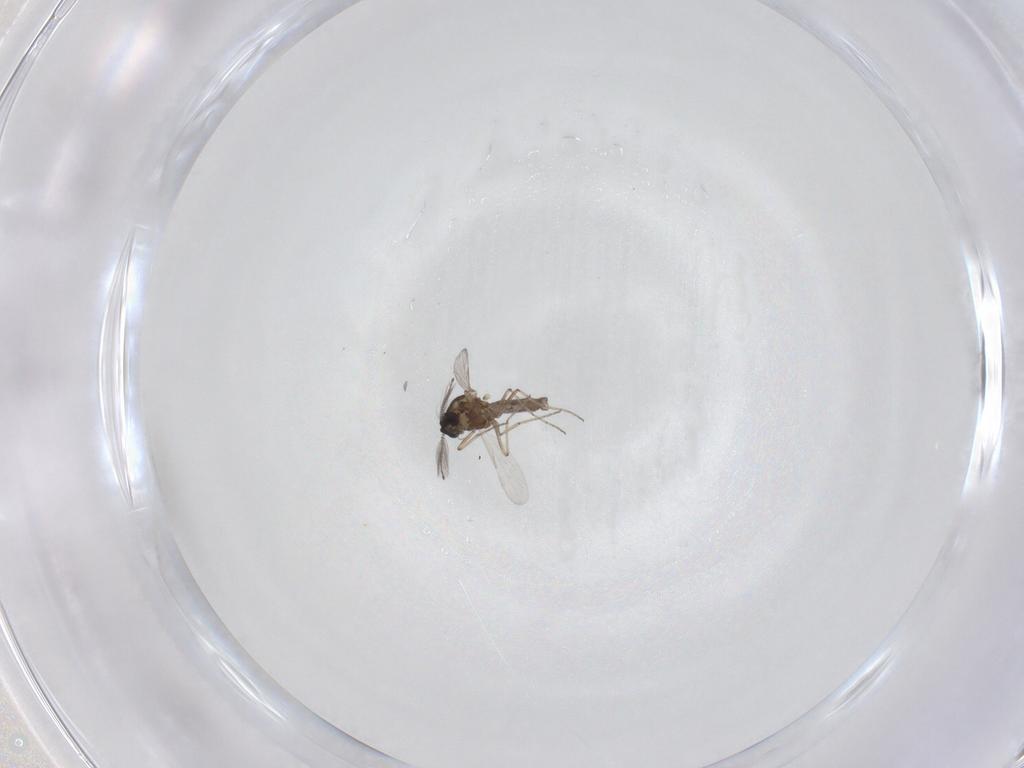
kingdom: Animalia
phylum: Arthropoda
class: Insecta
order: Diptera
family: Ceratopogonidae
